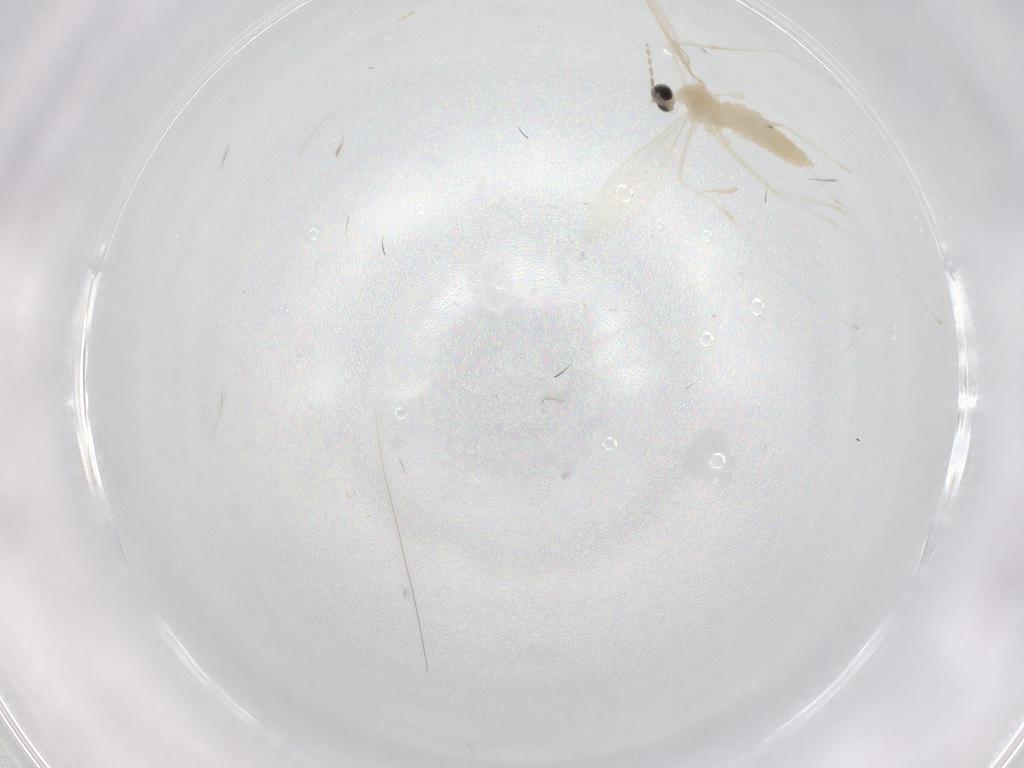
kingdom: Animalia
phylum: Arthropoda
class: Insecta
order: Diptera
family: Cecidomyiidae
